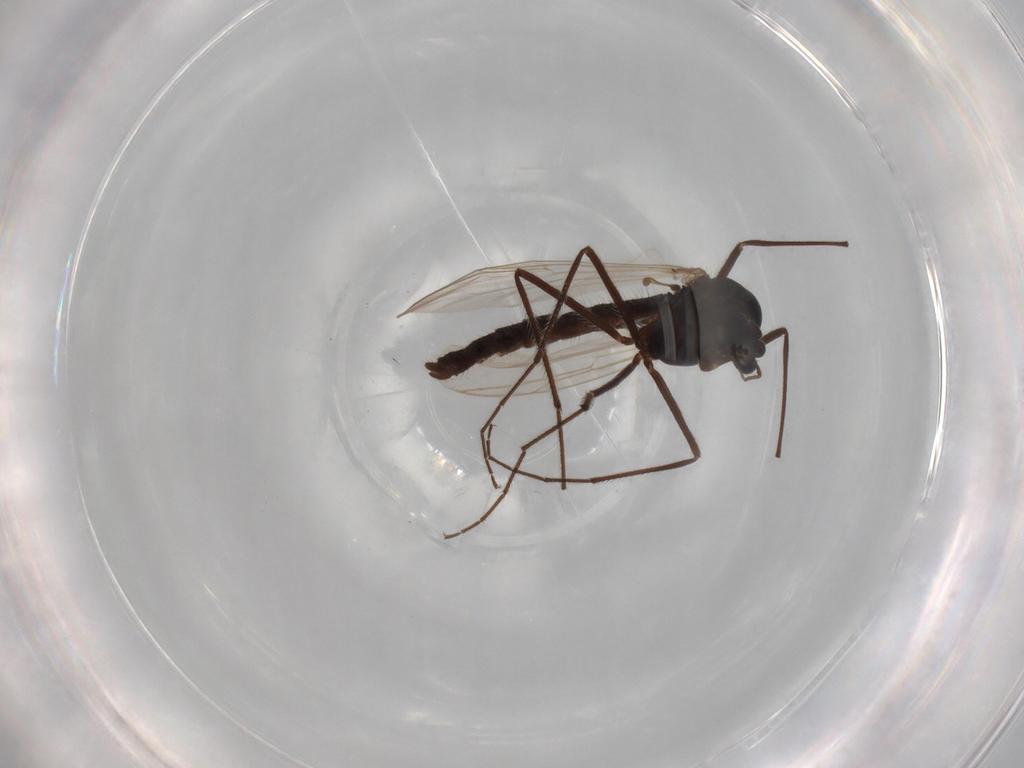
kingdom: Animalia
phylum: Arthropoda
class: Insecta
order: Diptera
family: Chironomidae
